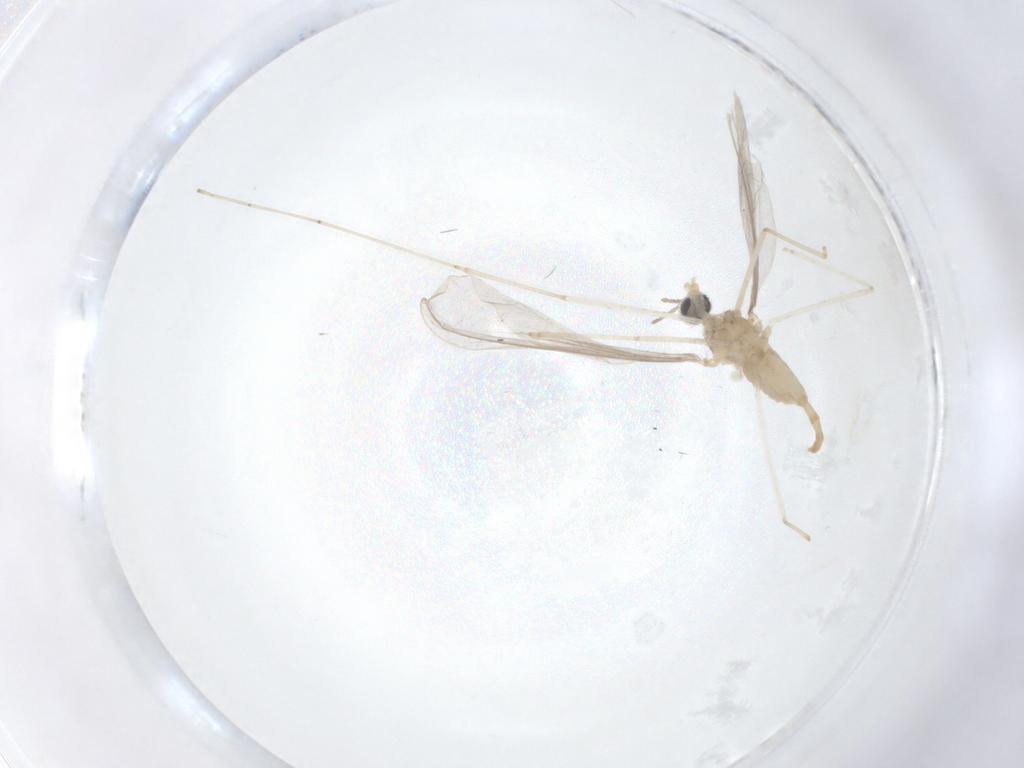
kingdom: Animalia
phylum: Arthropoda
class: Insecta
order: Diptera
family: Cecidomyiidae
